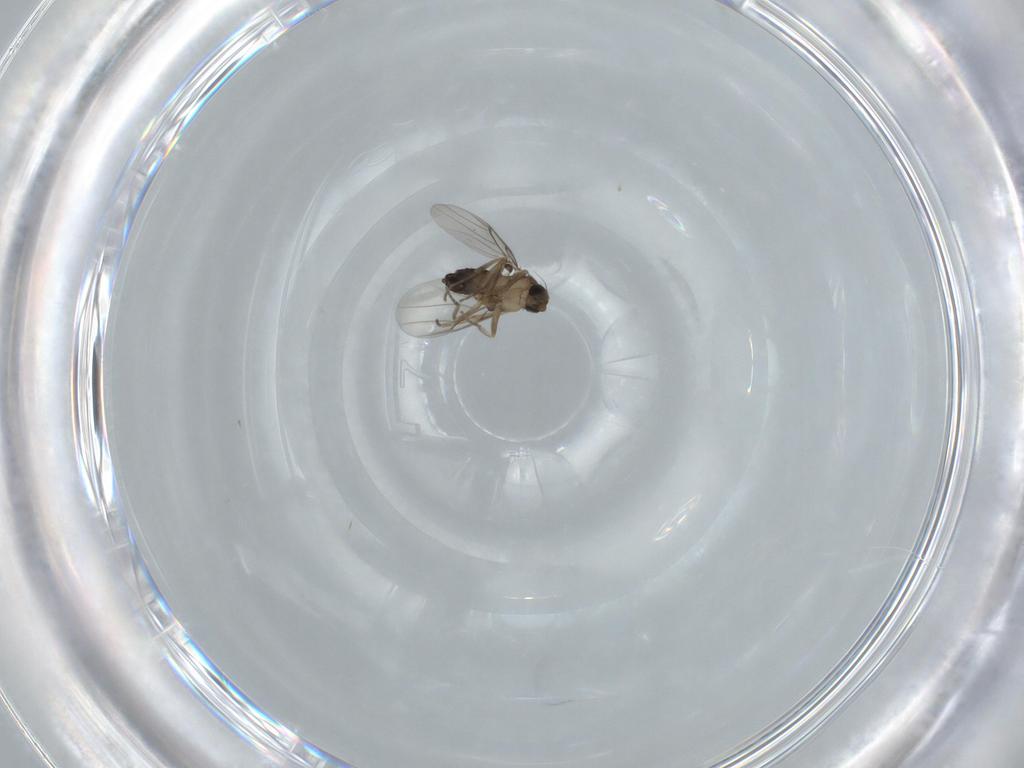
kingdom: Animalia
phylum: Arthropoda
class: Insecta
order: Diptera
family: Phoridae
